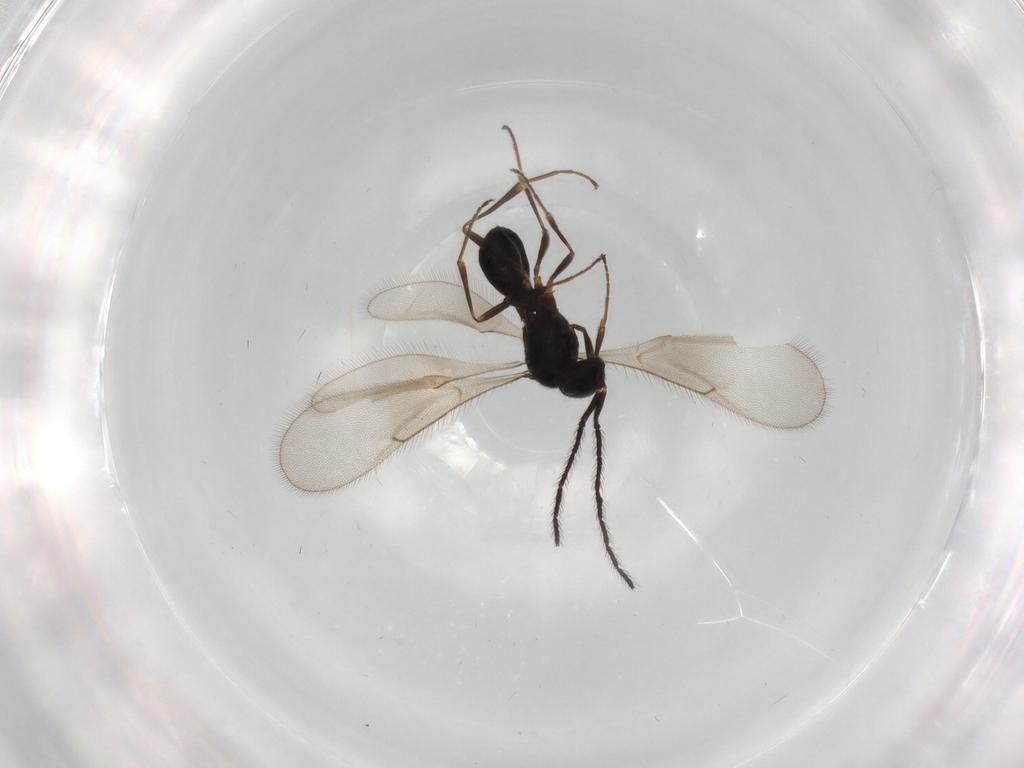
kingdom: Animalia
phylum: Arthropoda
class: Insecta
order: Hymenoptera
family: Scelionidae
